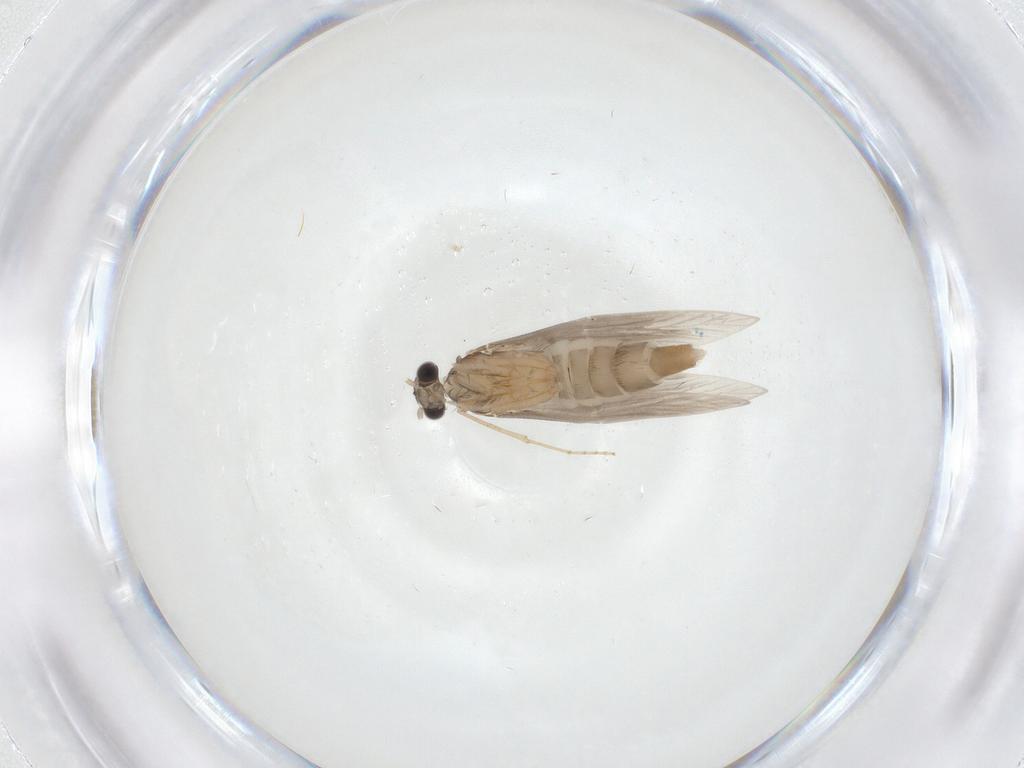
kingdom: Animalia
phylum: Arthropoda
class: Insecta
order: Trichoptera
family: Hydroptilidae
